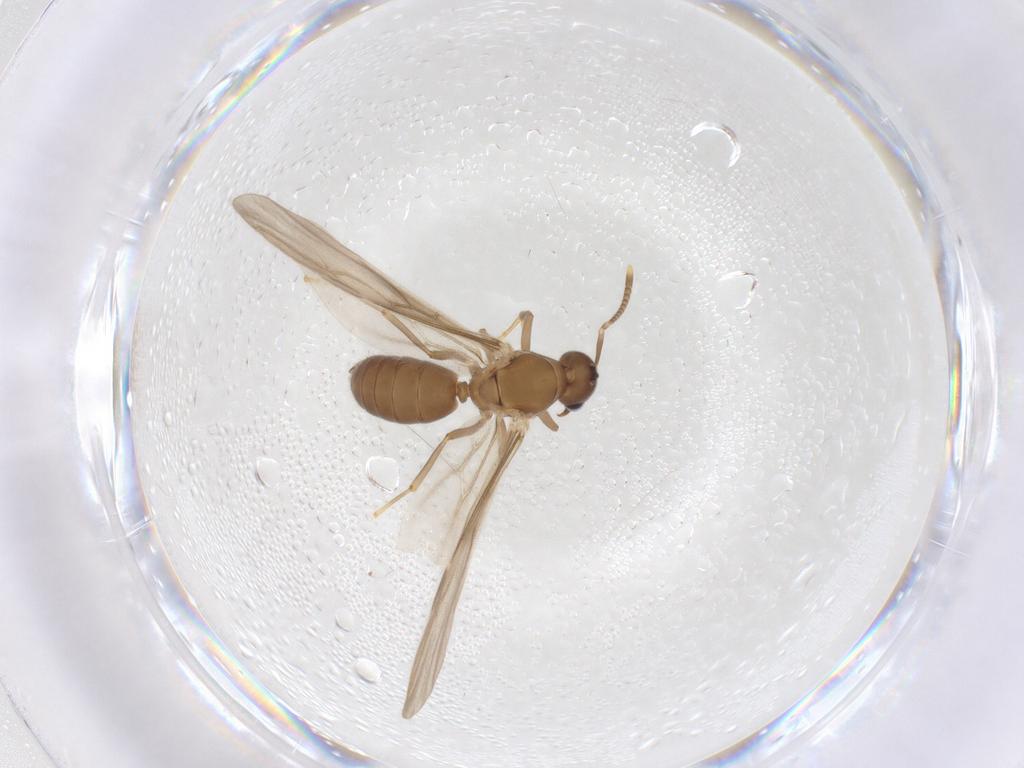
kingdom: Animalia
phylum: Arthropoda
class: Insecta
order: Hymenoptera
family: Formicidae
